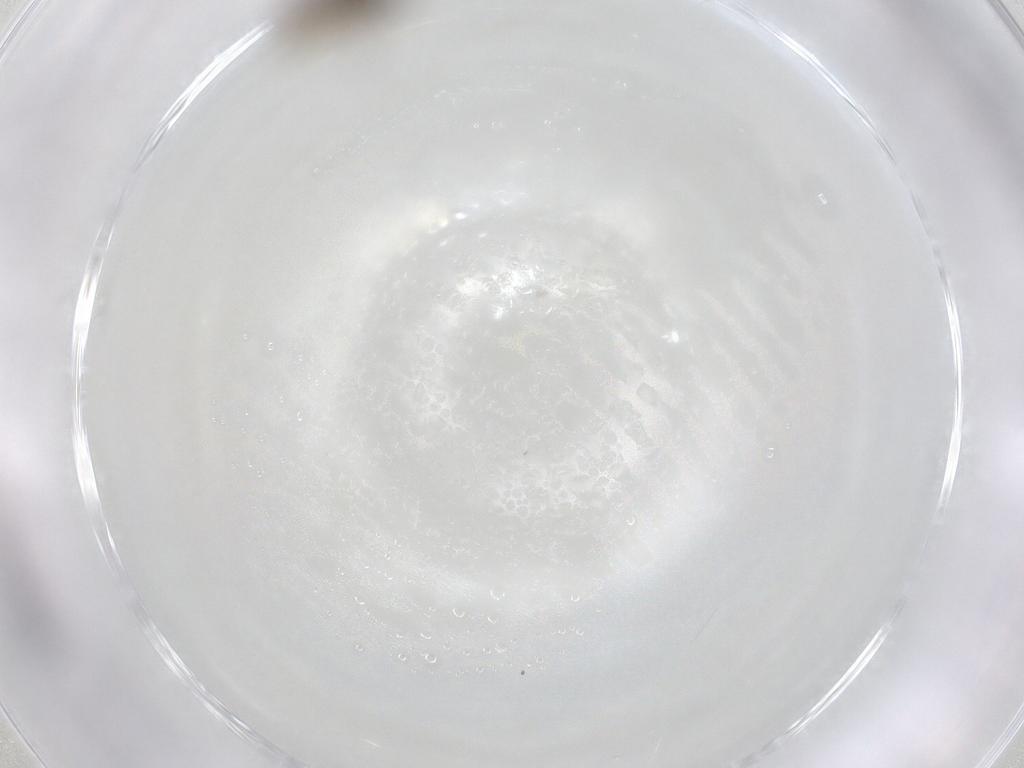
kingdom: Animalia
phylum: Arthropoda
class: Insecta
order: Diptera
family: Cecidomyiidae
